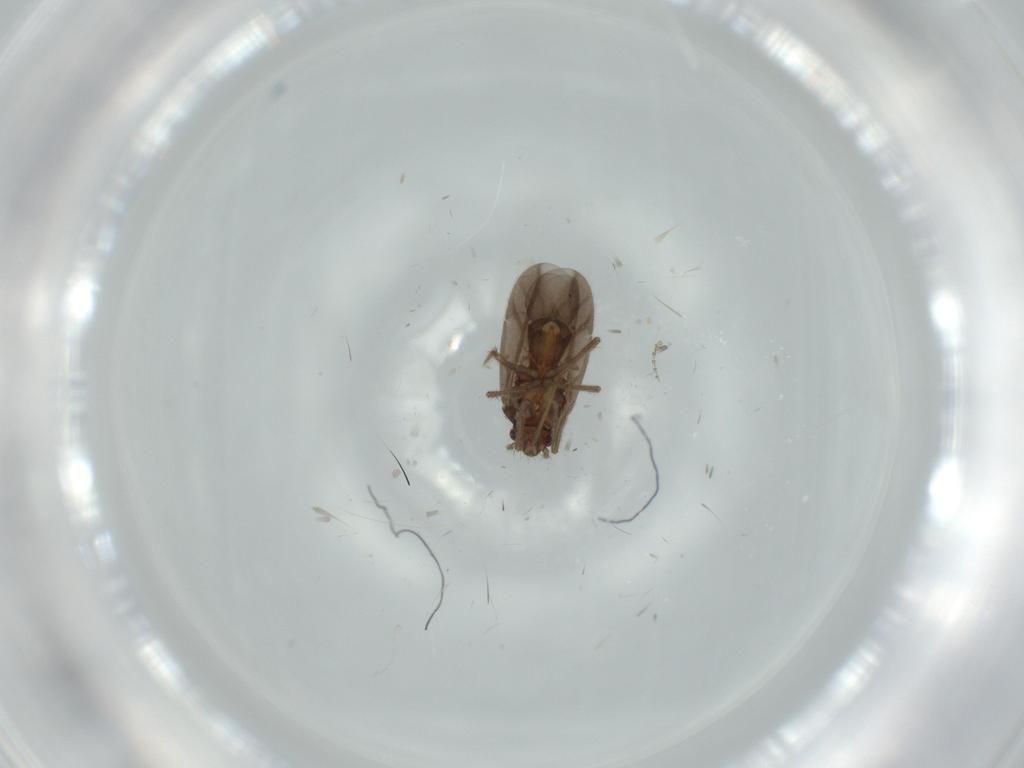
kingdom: Animalia
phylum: Arthropoda
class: Insecta
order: Hemiptera
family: Ceratocombidae
